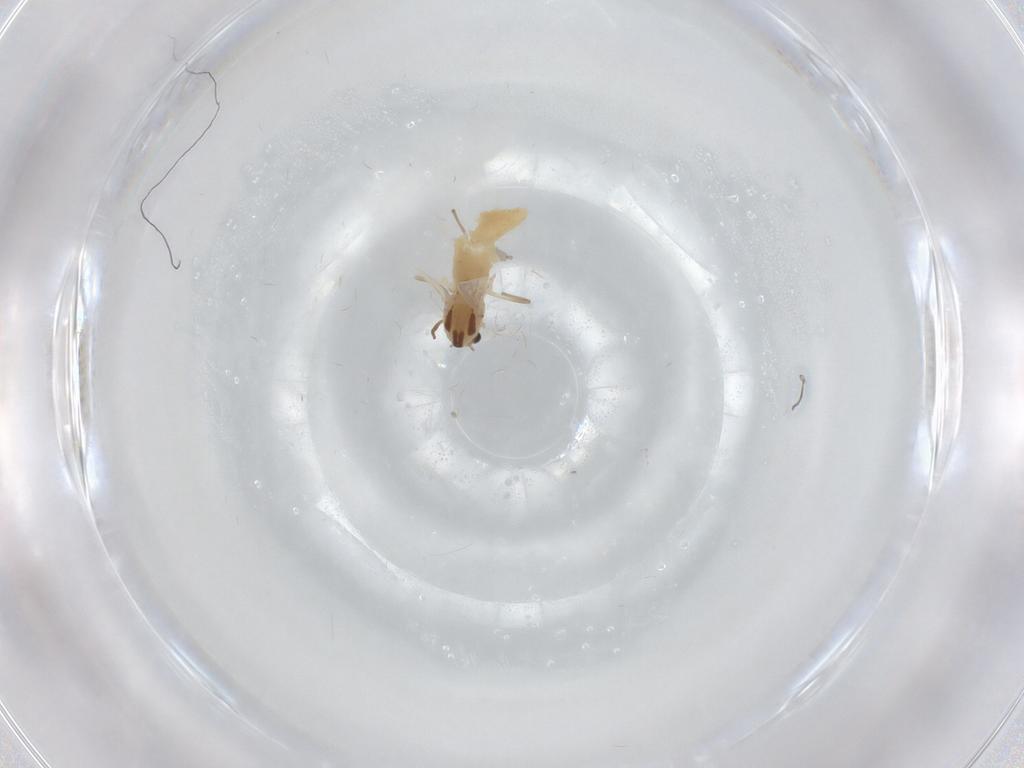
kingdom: Animalia
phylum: Arthropoda
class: Insecta
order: Diptera
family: Chironomidae
